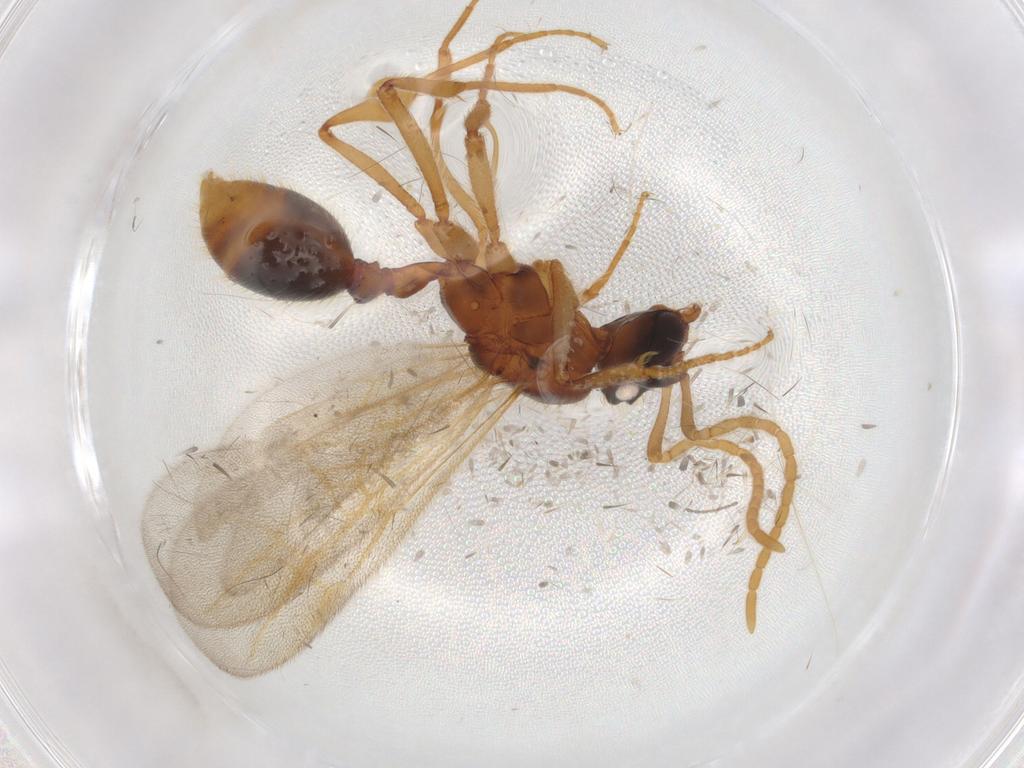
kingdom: Animalia
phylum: Arthropoda
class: Insecta
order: Hymenoptera
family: Formicidae
